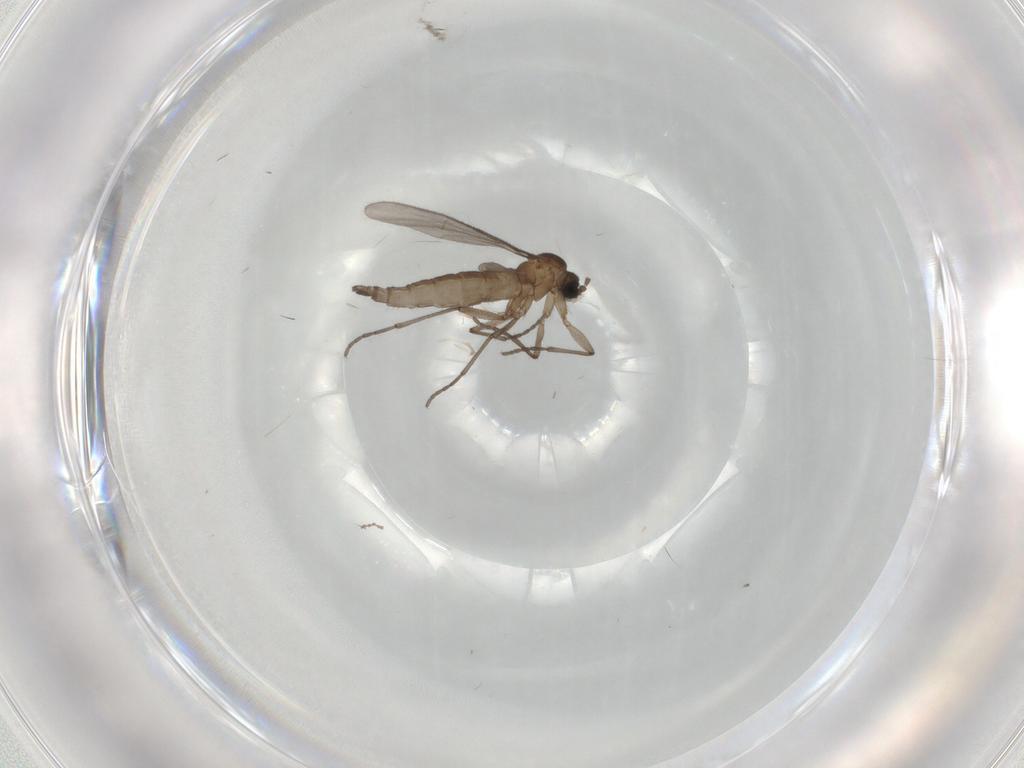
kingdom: Animalia
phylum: Arthropoda
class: Insecta
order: Diptera
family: Sciaridae
